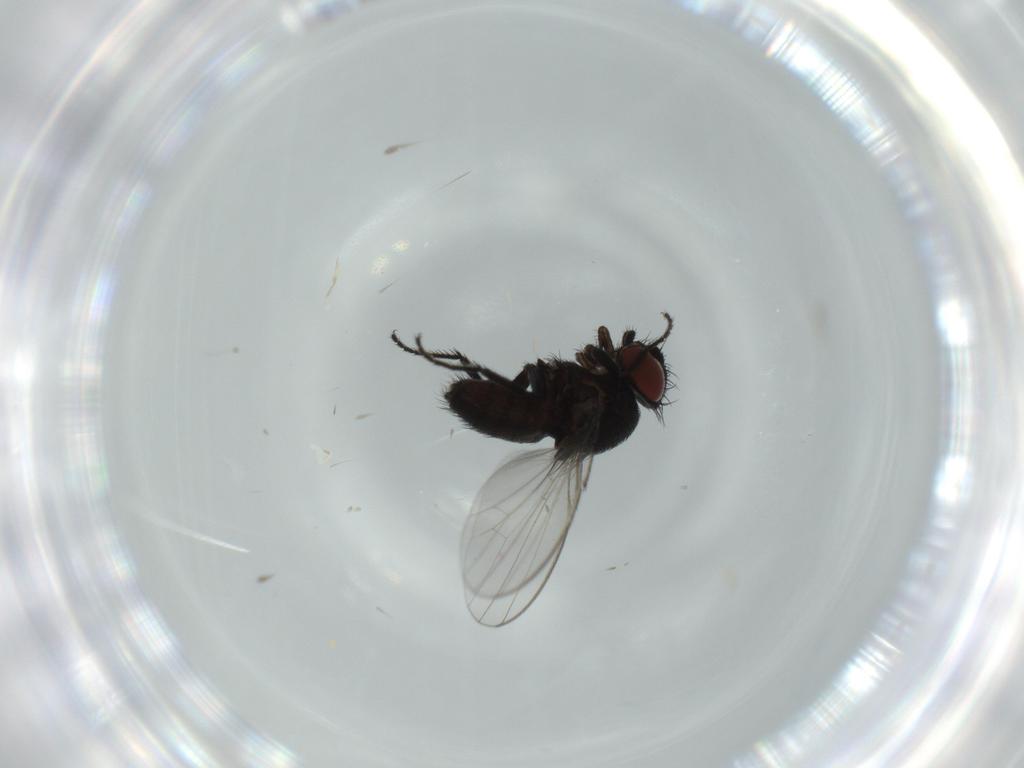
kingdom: Animalia
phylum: Arthropoda
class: Insecta
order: Diptera
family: Milichiidae
